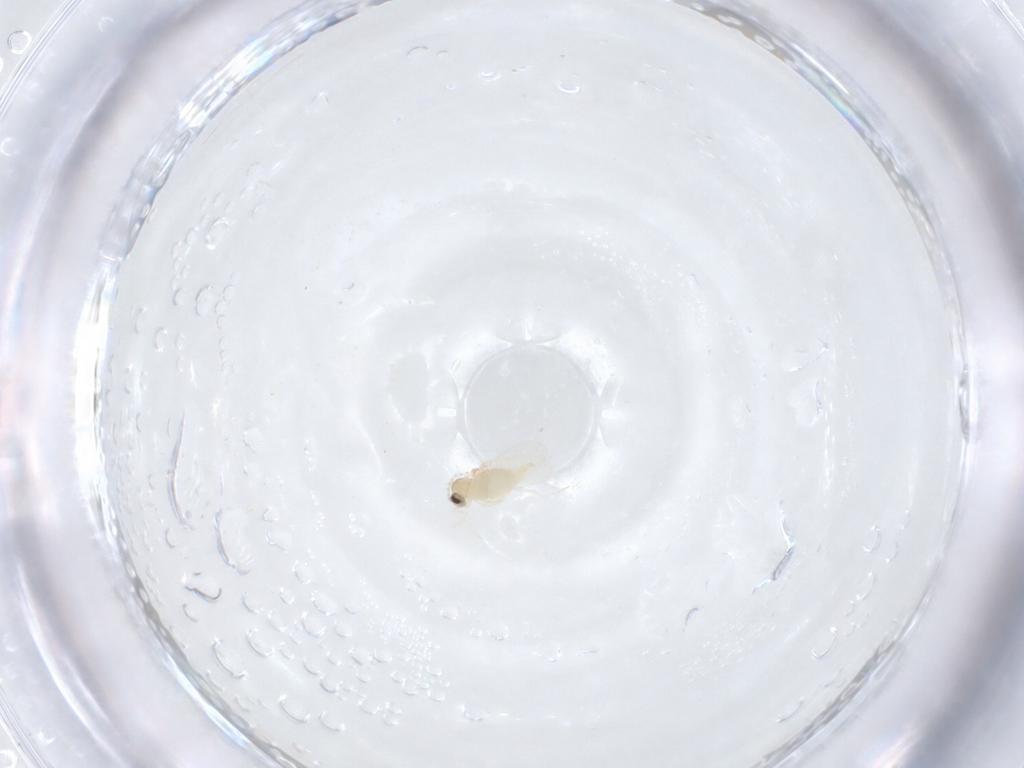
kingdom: Animalia
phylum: Arthropoda
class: Insecta
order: Diptera
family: Cecidomyiidae
